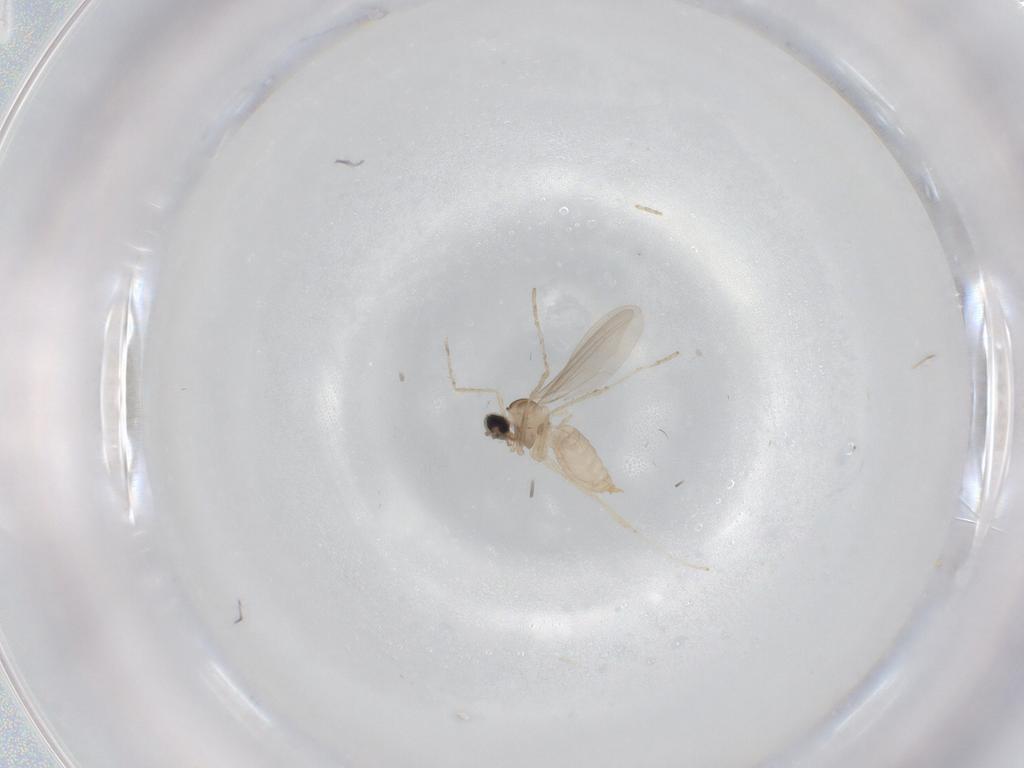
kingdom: Animalia
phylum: Arthropoda
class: Insecta
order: Diptera
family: Cecidomyiidae
